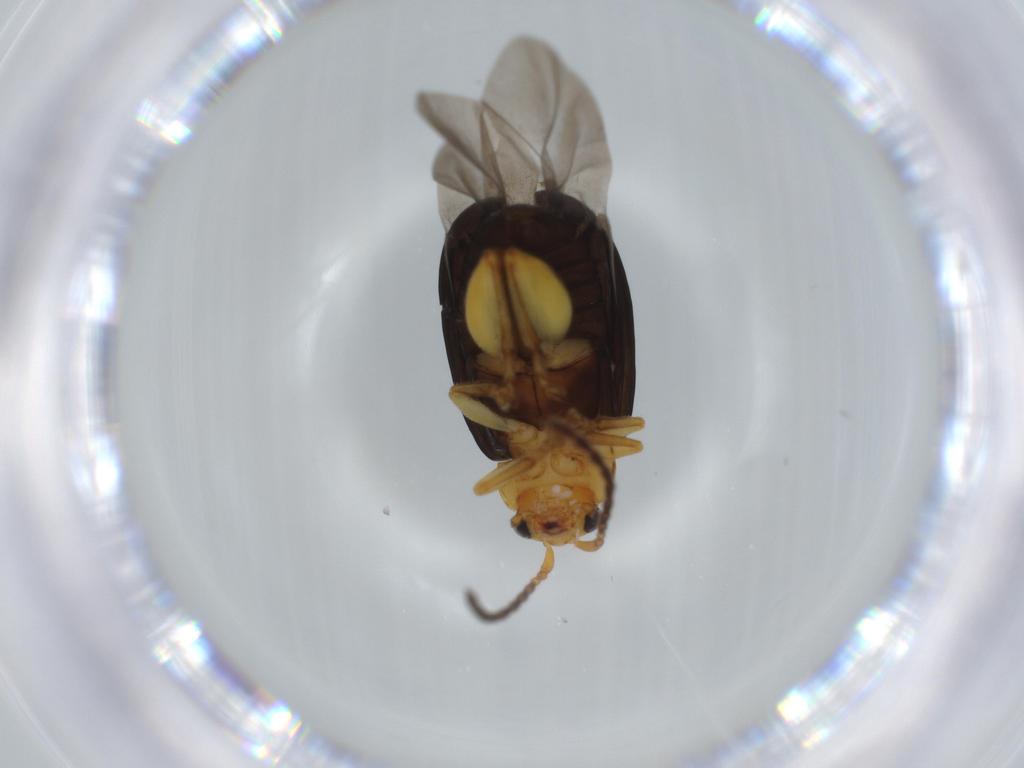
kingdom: Animalia
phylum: Arthropoda
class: Insecta
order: Coleoptera
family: Chrysomelidae
